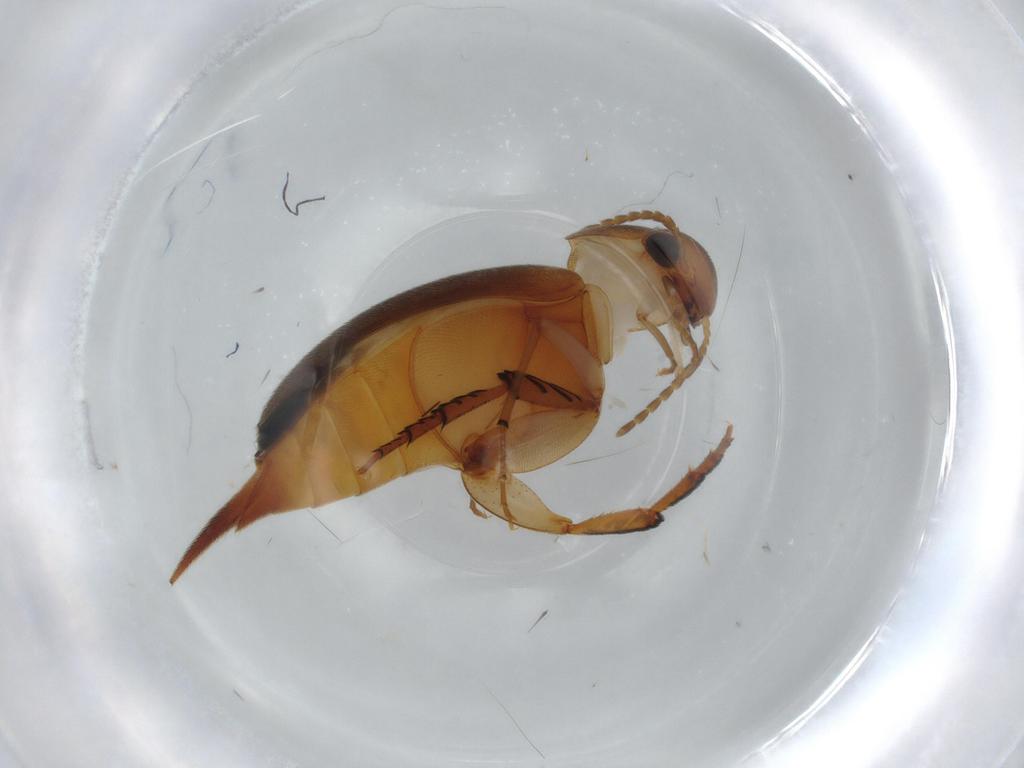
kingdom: Animalia
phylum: Arthropoda
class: Insecta
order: Coleoptera
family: Mordellidae
